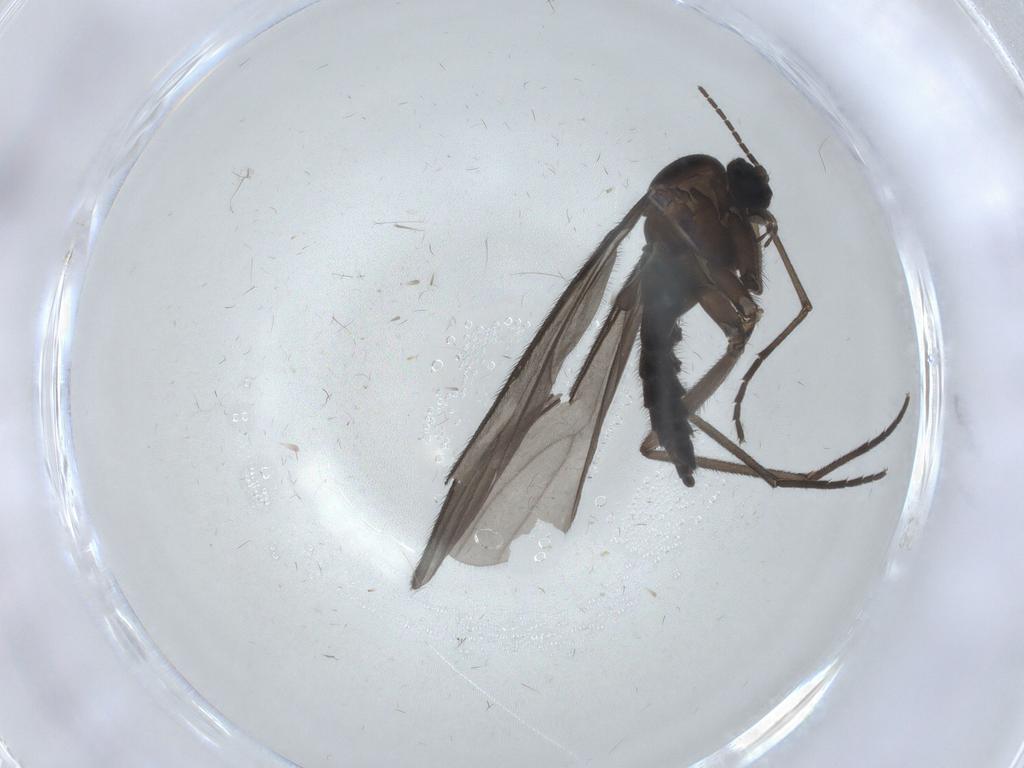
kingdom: Animalia
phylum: Arthropoda
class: Insecta
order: Diptera
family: Sciaridae
